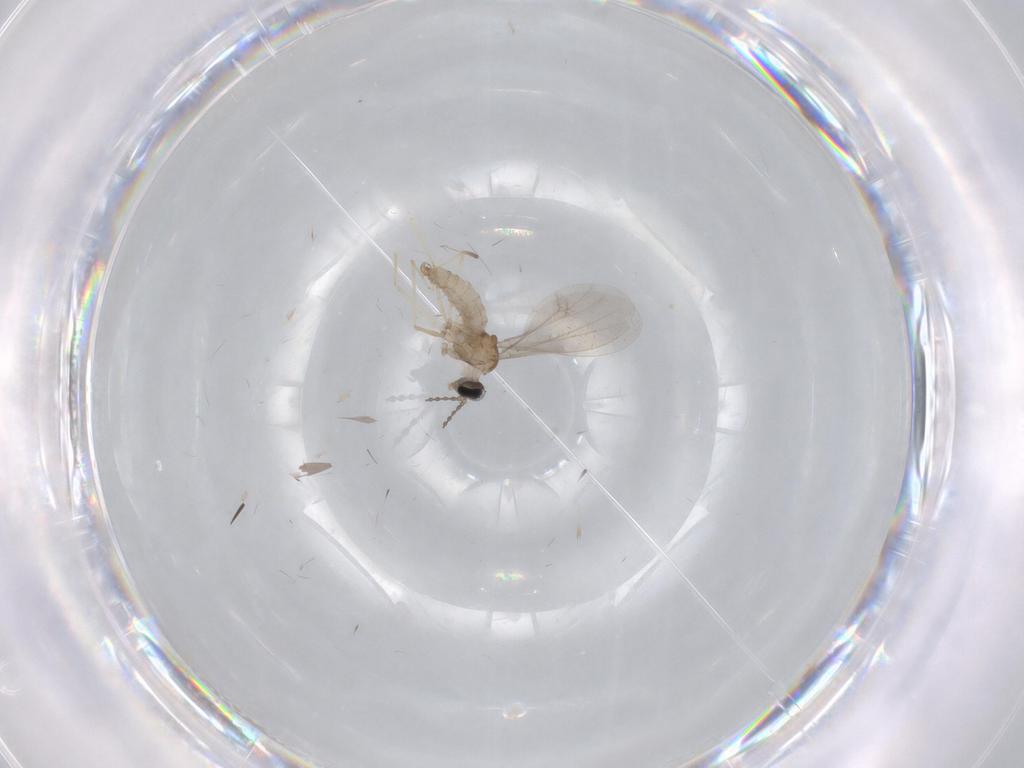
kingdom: Animalia
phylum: Arthropoda
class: Insecta
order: Diptera
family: Cecidomyiidae
